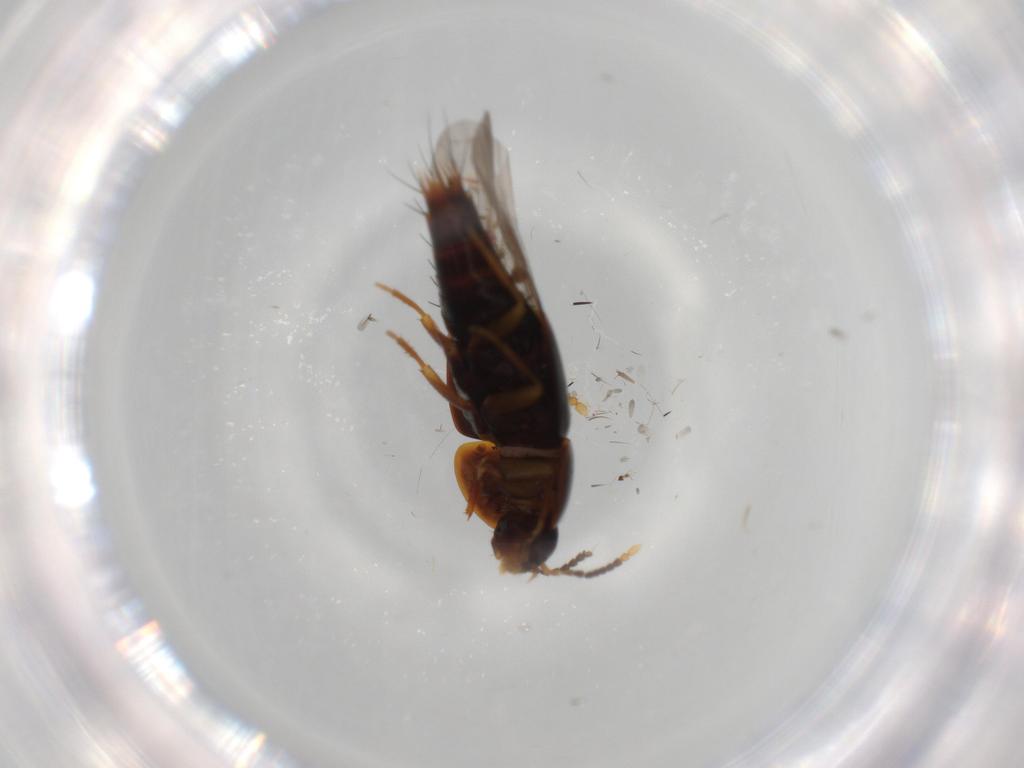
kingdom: Animalia
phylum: Arthropoda
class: Insecta
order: Coleoptera
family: Staphylinidae
